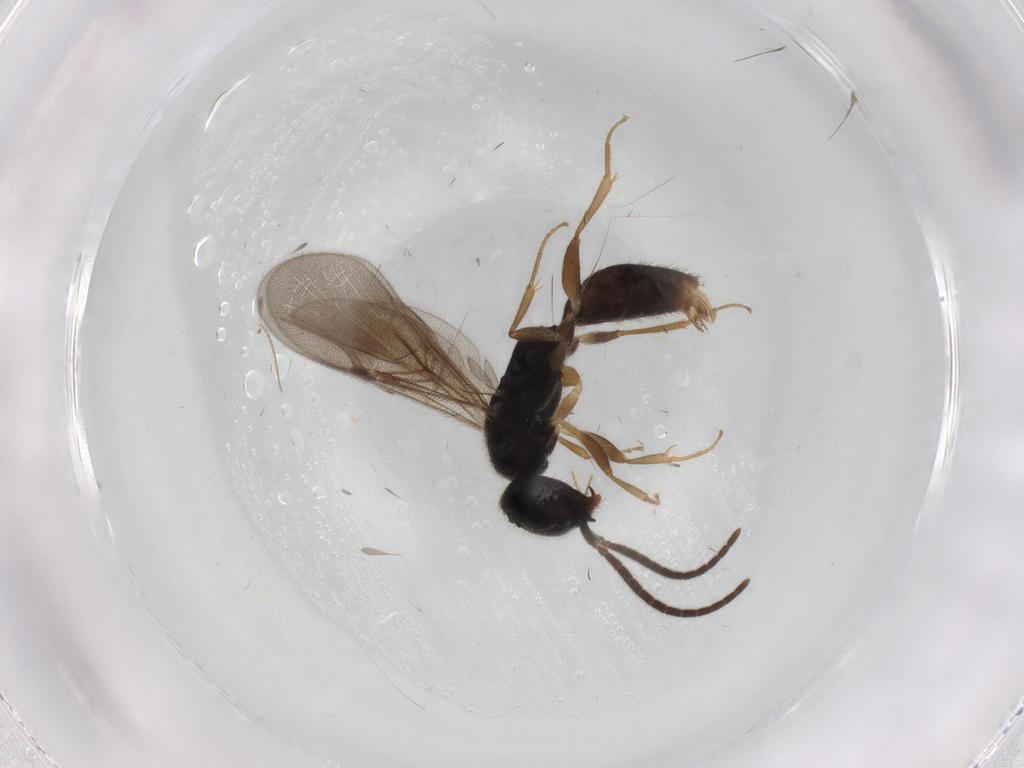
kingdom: Animalia
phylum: Arthropoda
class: Insecta
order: Hymenoptera
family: Bethylidae
